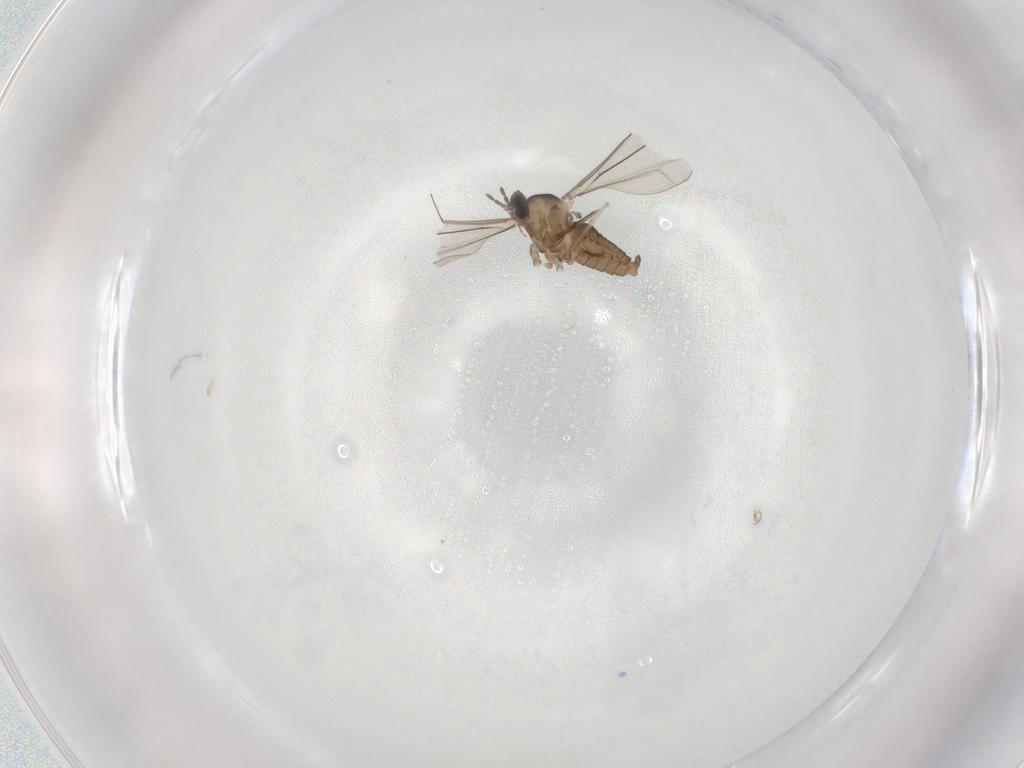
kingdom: Animalia
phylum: Arthropoda
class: Insecta
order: Diptera
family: Cecidomyiidae
